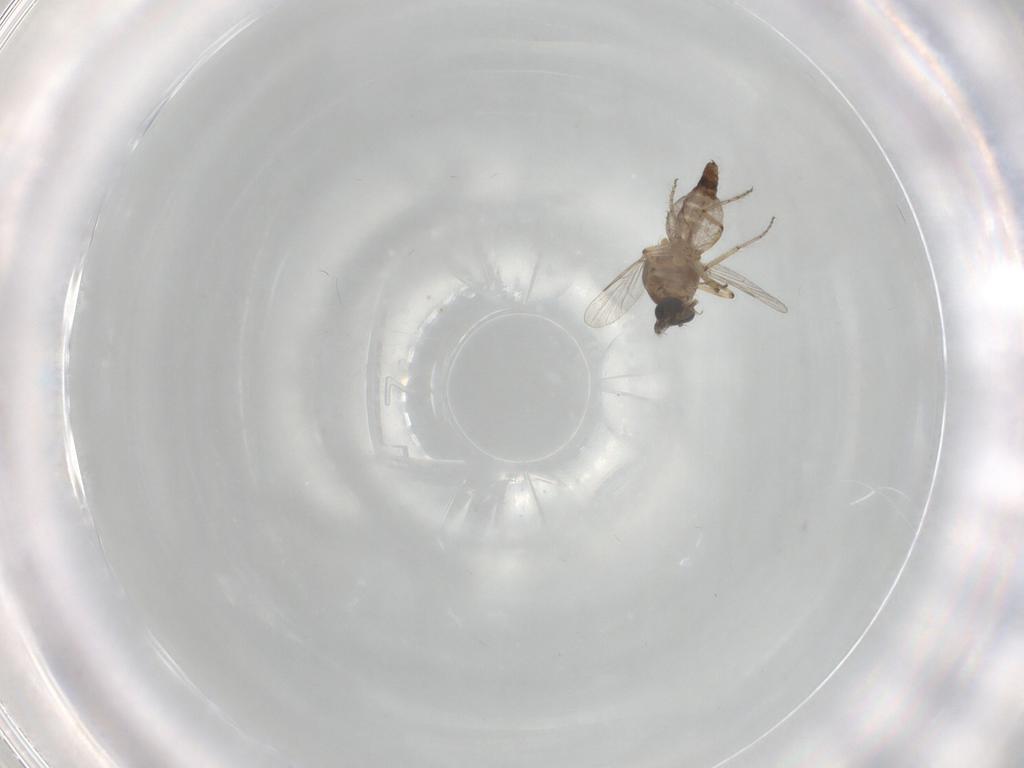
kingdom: Animalia
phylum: Arthropoda
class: Insecta
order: Diptera
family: Ceratopogonidae
